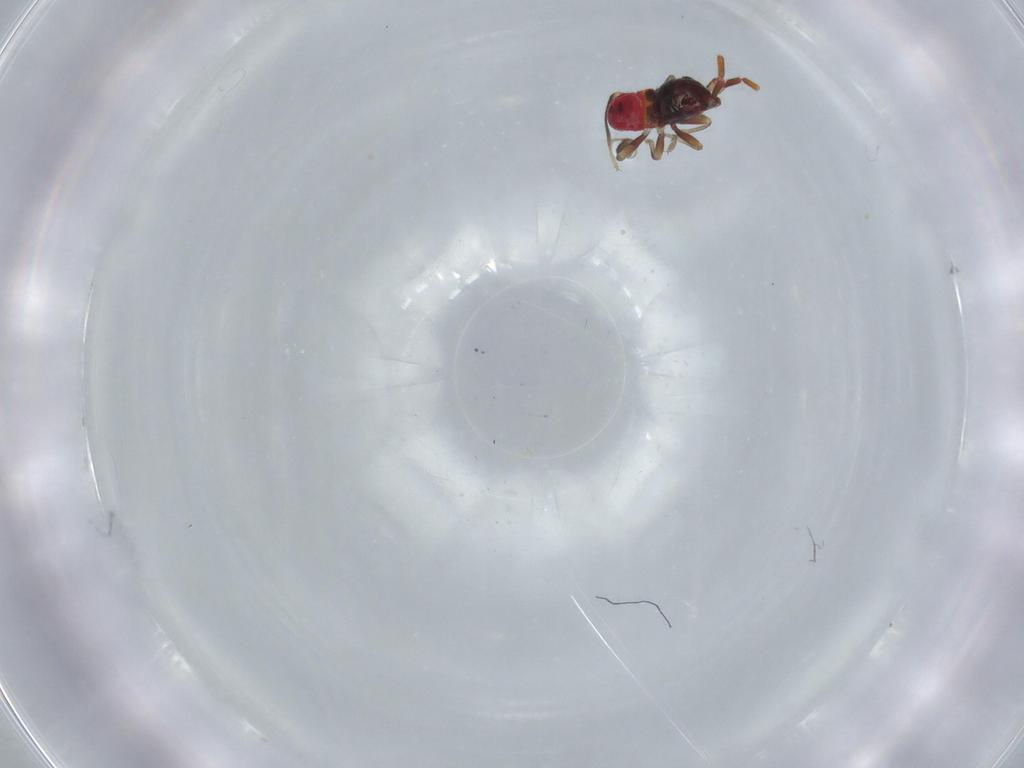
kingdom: Animalia
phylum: Arthropoda
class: Insecta
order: Hemiptera
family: Rhyparochromidae
